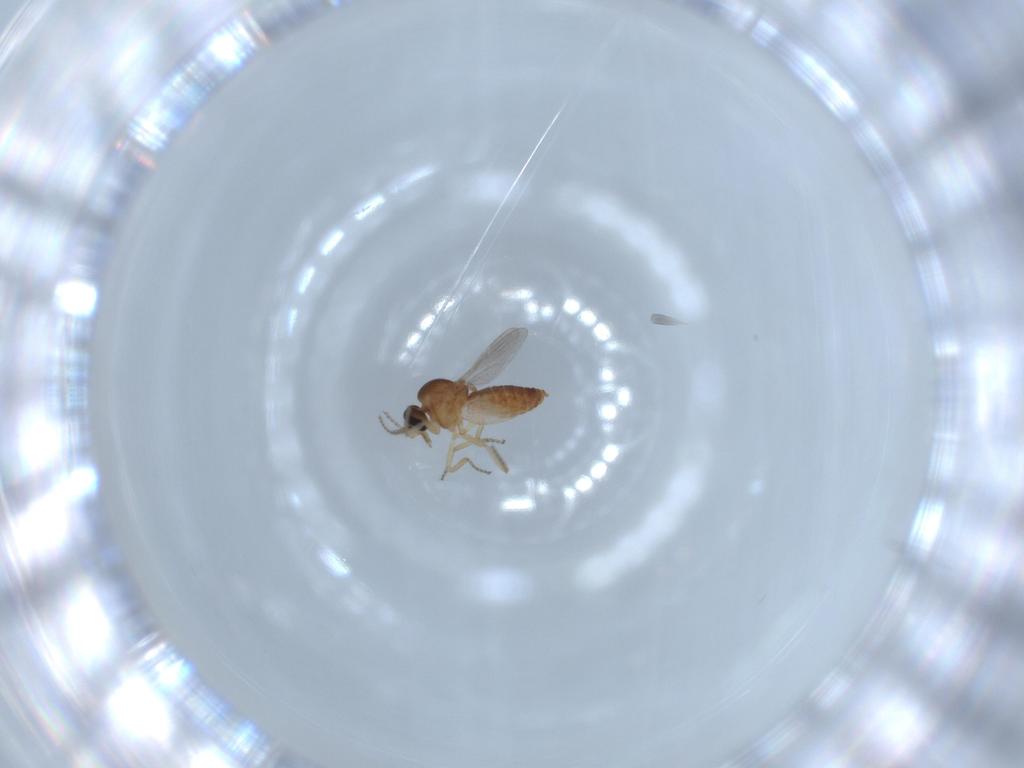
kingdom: Animalia
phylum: Arthropoda
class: Insecta
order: Diptera
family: Ceratopogonidae
